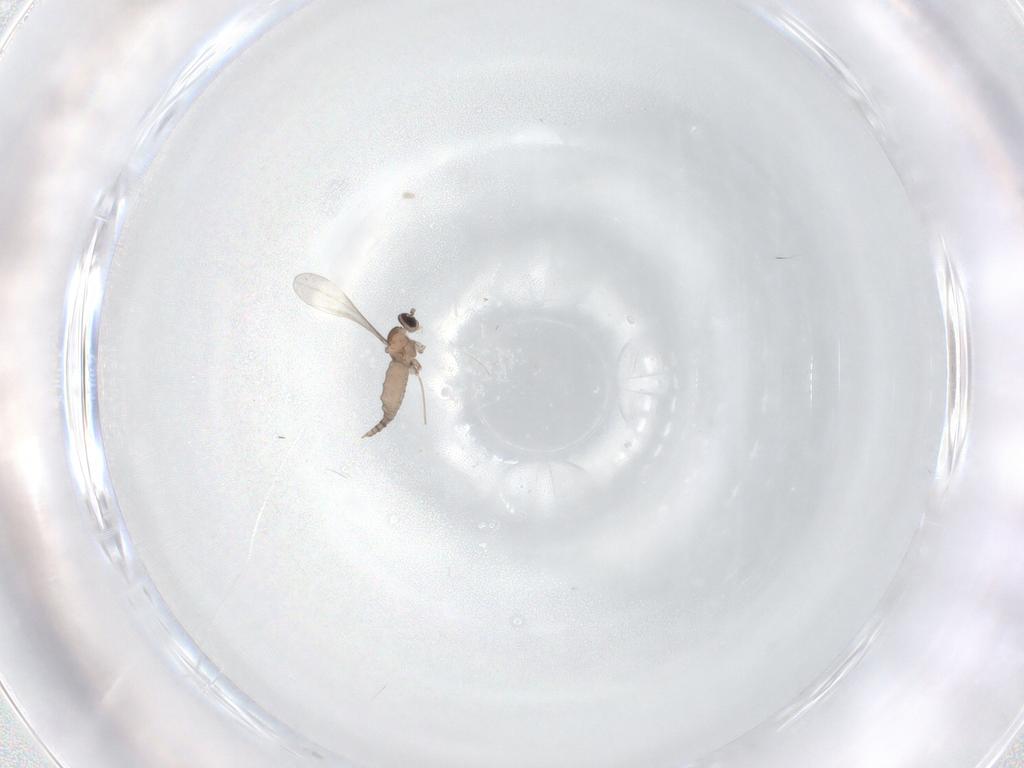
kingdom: Animalia
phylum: Arthropoda
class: Insecta
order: Diptera
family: Cecidomyiidae
